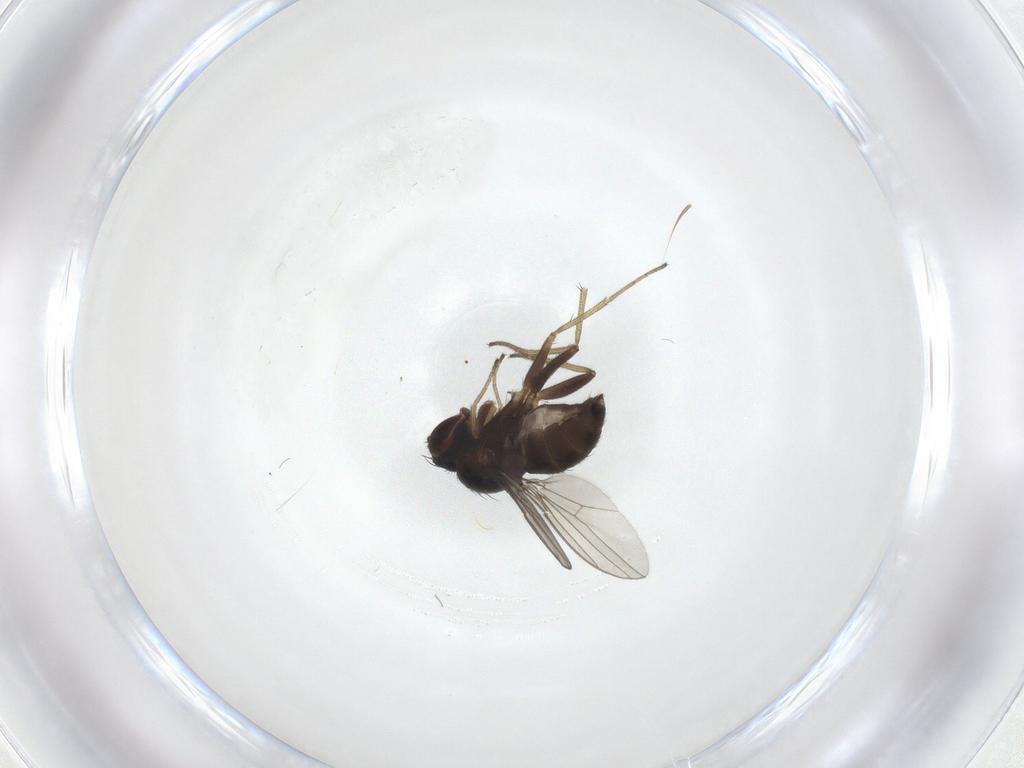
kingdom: Animalia
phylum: Arthropoda
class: Insecta
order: Diptera
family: Dolichopodidae
